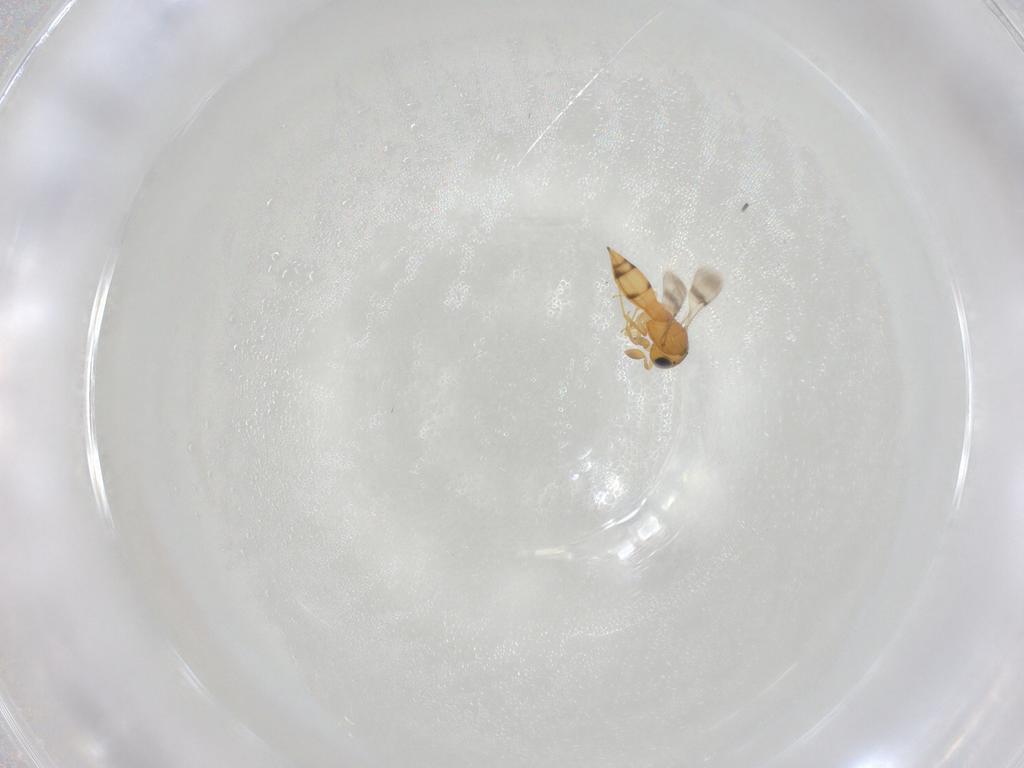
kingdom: Animalia
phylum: Arthropoda
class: Insecta
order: Hymenoptera
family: Scelionidae
